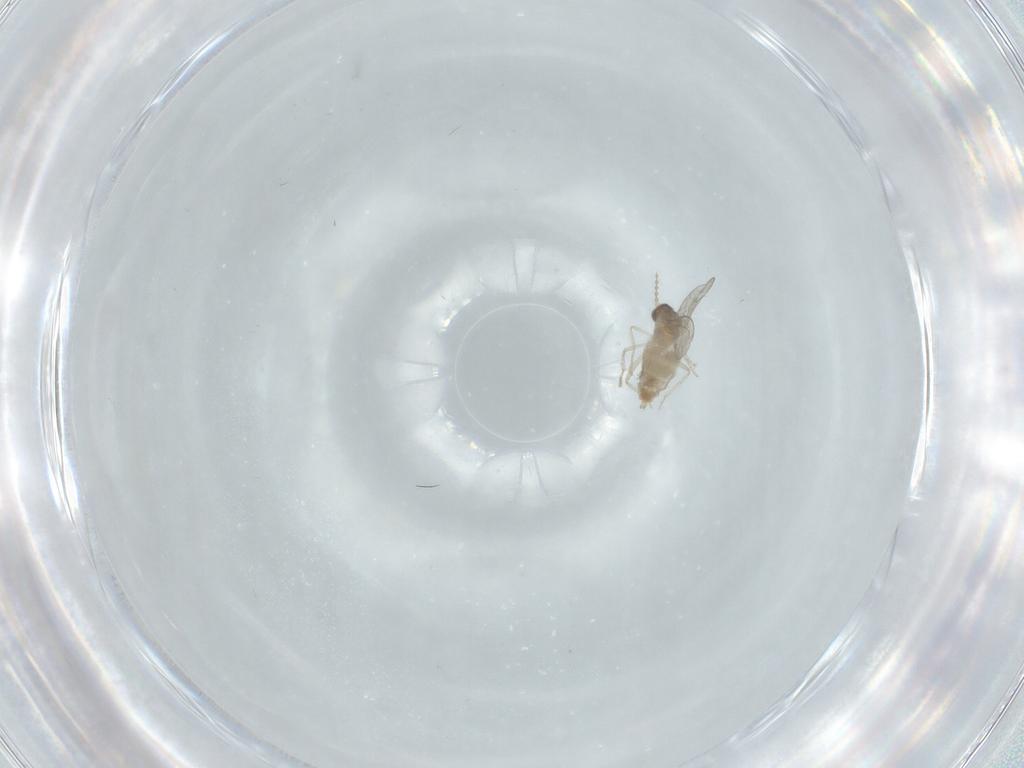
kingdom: Animalia
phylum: Arthropoda
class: Insecta
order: Diptera
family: Cecidomyiidae
